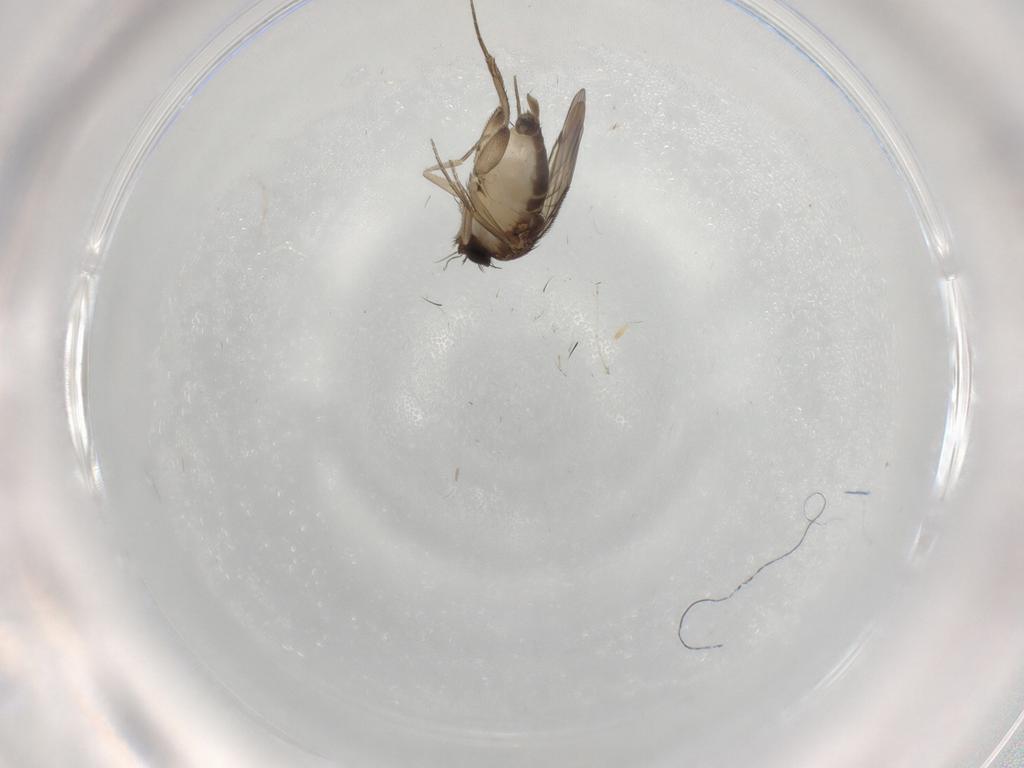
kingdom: Animalia
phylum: Arthropoda
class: Insecta
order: Diptera
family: Phoridae
